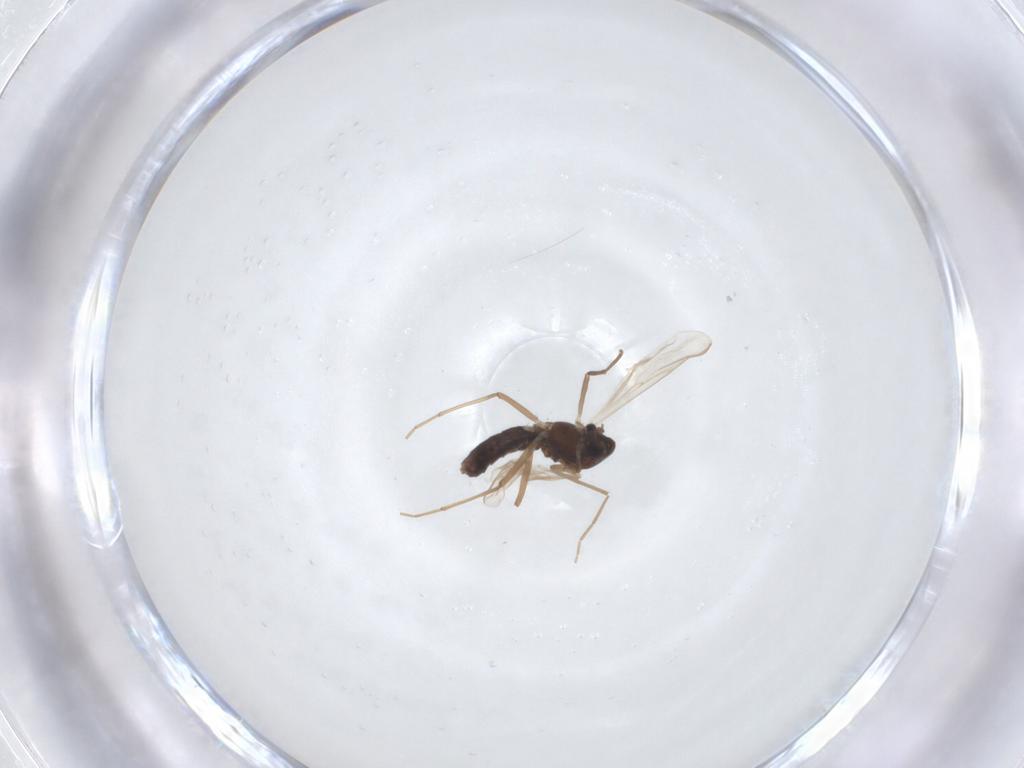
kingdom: Animalia
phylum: Arthropoda
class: Insecta
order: Diptera
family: Chironomidae
